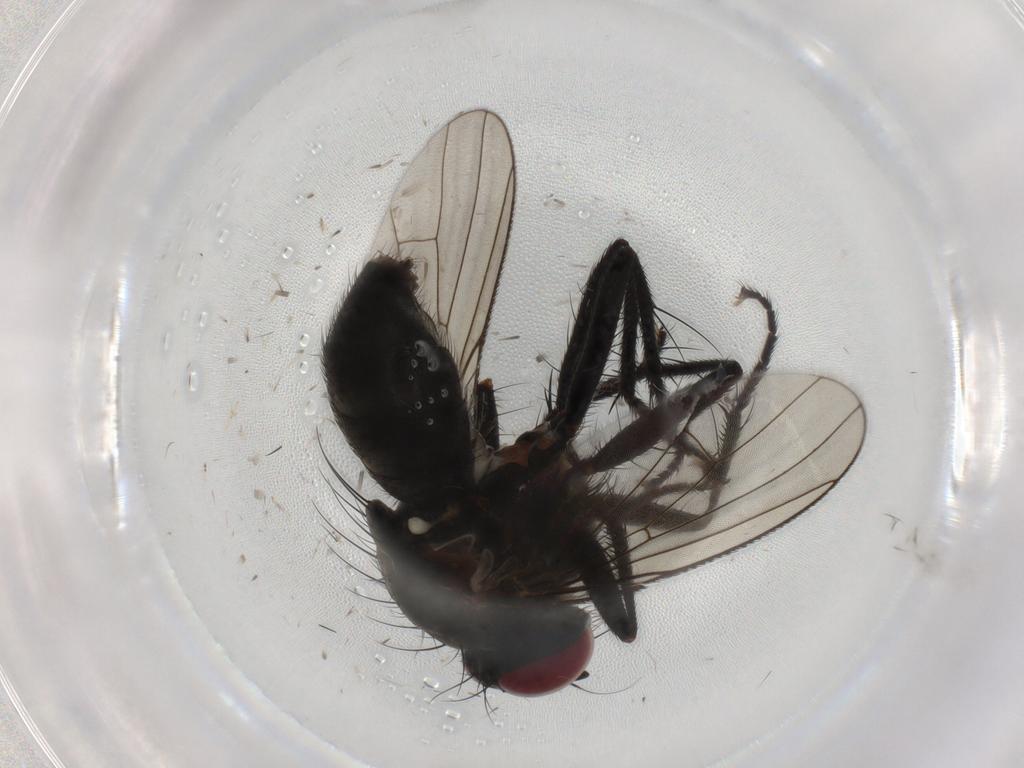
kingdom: Animalia
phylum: Arthropoda
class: Insecta
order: Diptera
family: Muscidae
